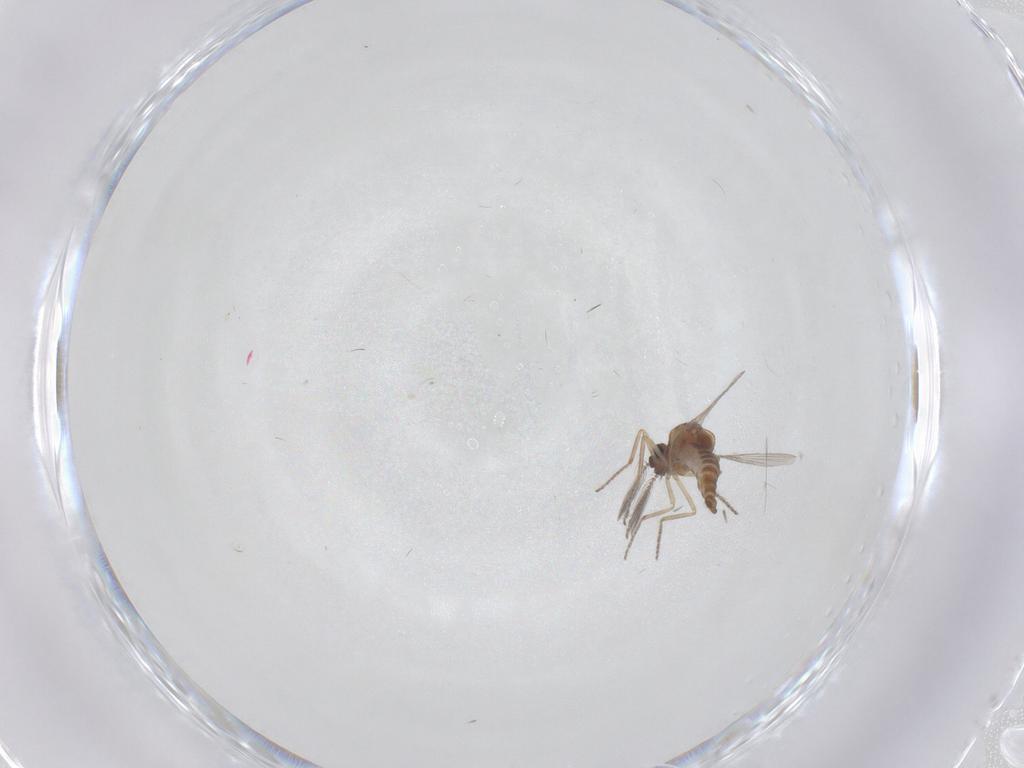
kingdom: Animalia
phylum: Arthropoda
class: Insecta
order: Diptera
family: Ceratopogonidae
